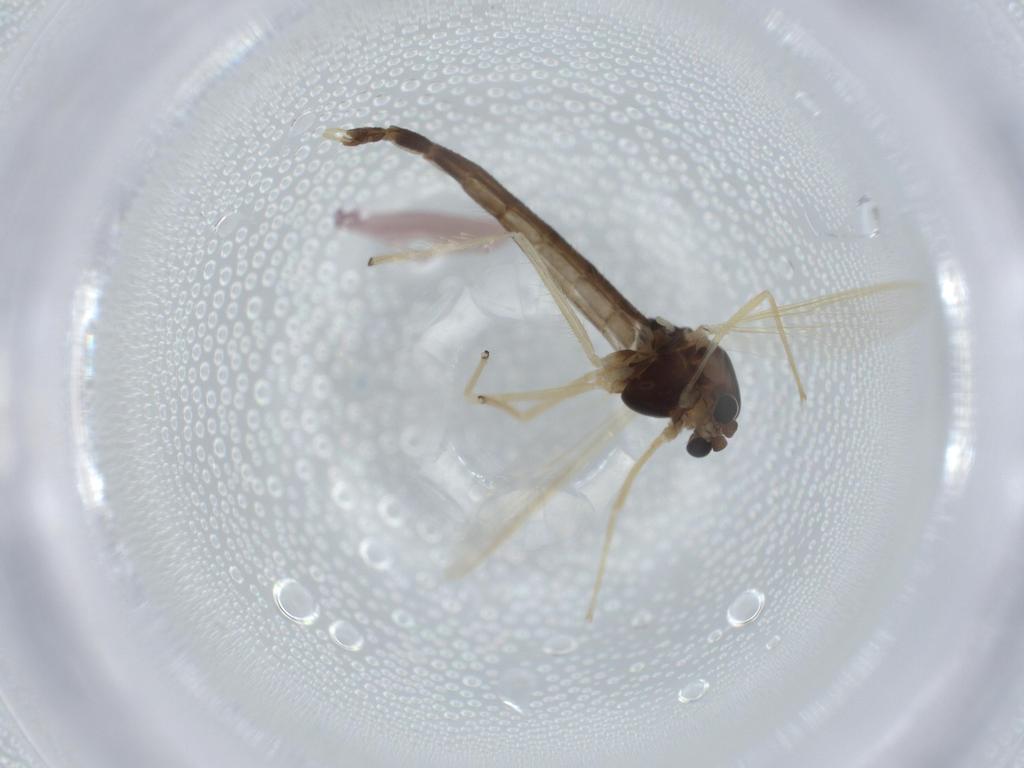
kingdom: Animalia
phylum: Arthropoda
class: Insecta
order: Diptera
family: Chironomidae
